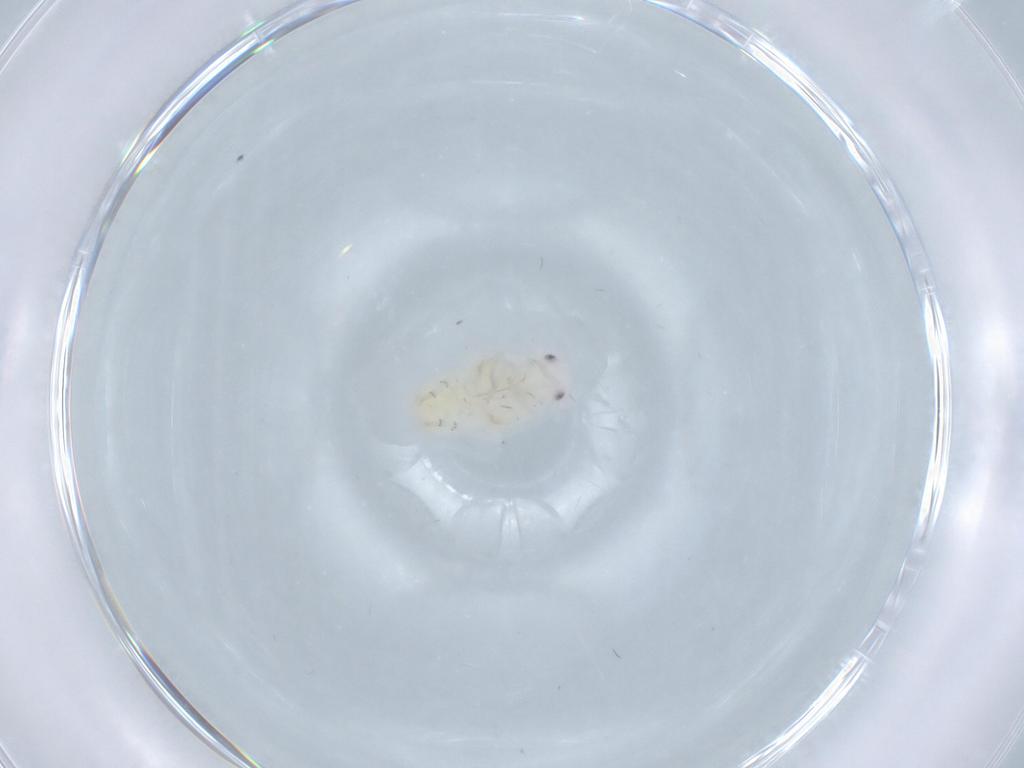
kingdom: Animalia
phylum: Arthropoda
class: Insecta
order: Hemiptera
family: Flatidae
